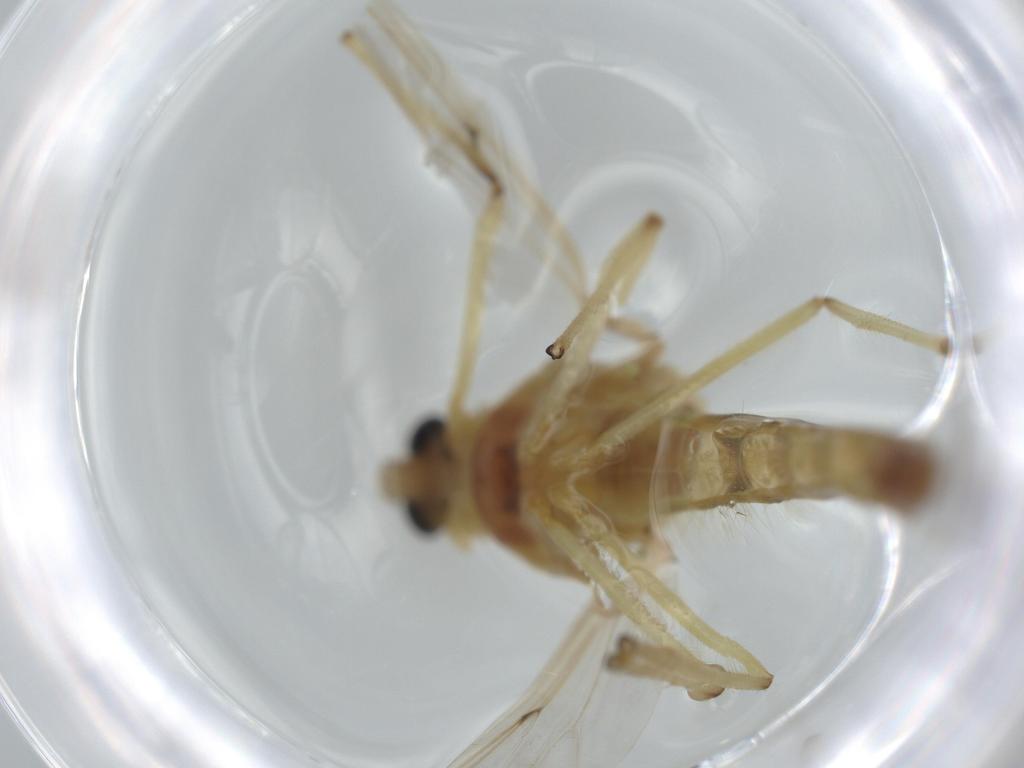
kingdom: Animalia
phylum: Arthropoda
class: Insecta
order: Diptera
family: Chironomidae
